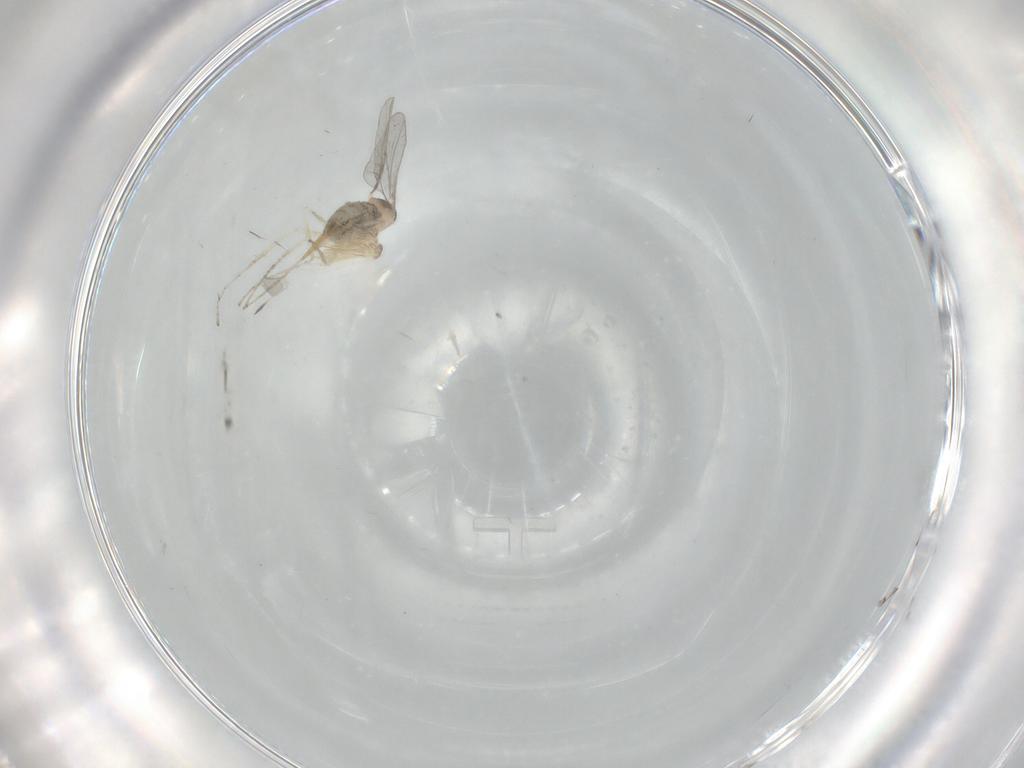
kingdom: Animalia
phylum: Arthropoda
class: Insecta
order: Diptera
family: Cecidomyiidae
